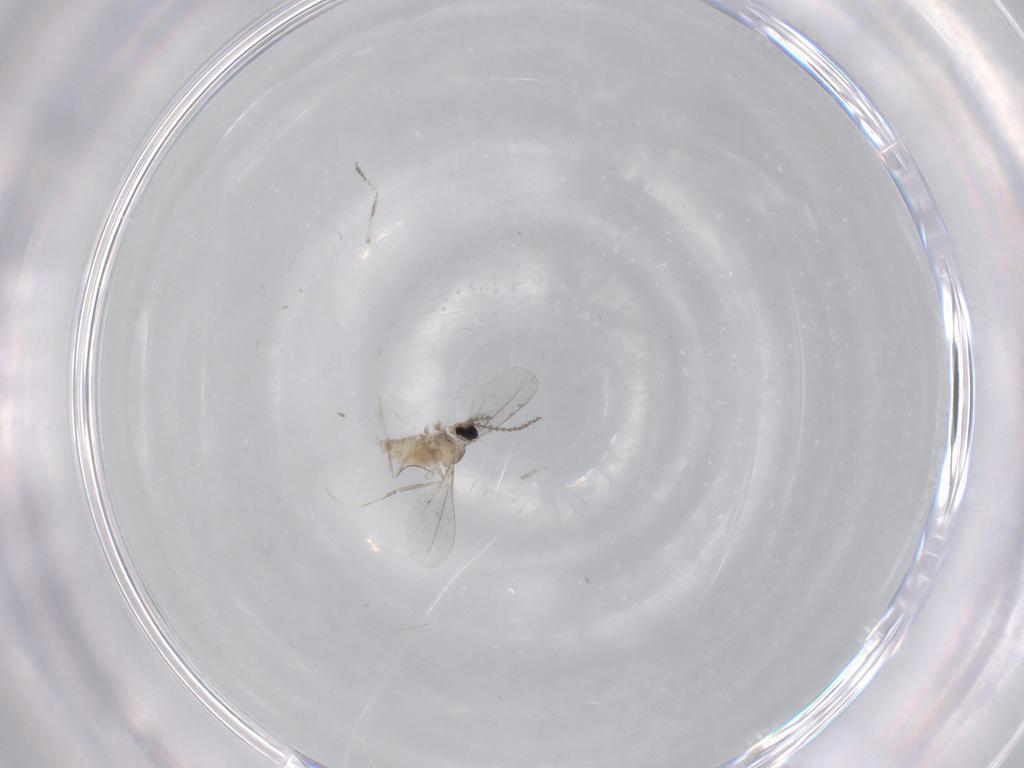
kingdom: Animalia
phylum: Arthropoda
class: Insecta
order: Diptera
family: Cecidomyiidae
